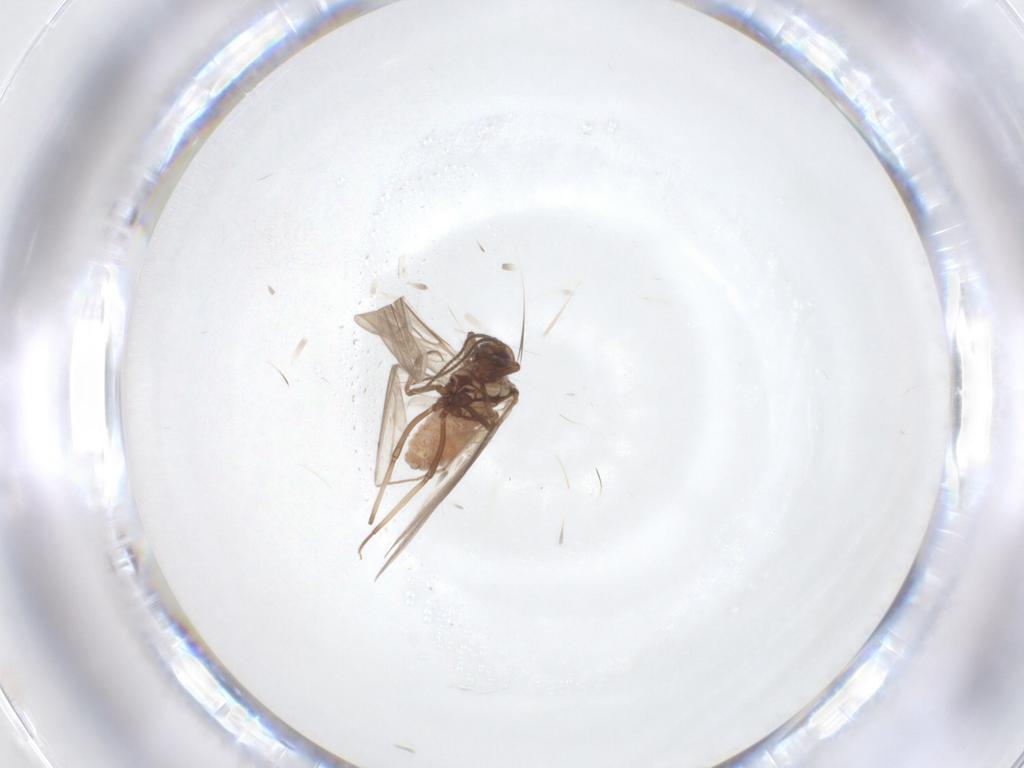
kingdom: Animalia
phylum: Arthropoda
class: Insecta
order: Neuroptera
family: Coniopterygidae
